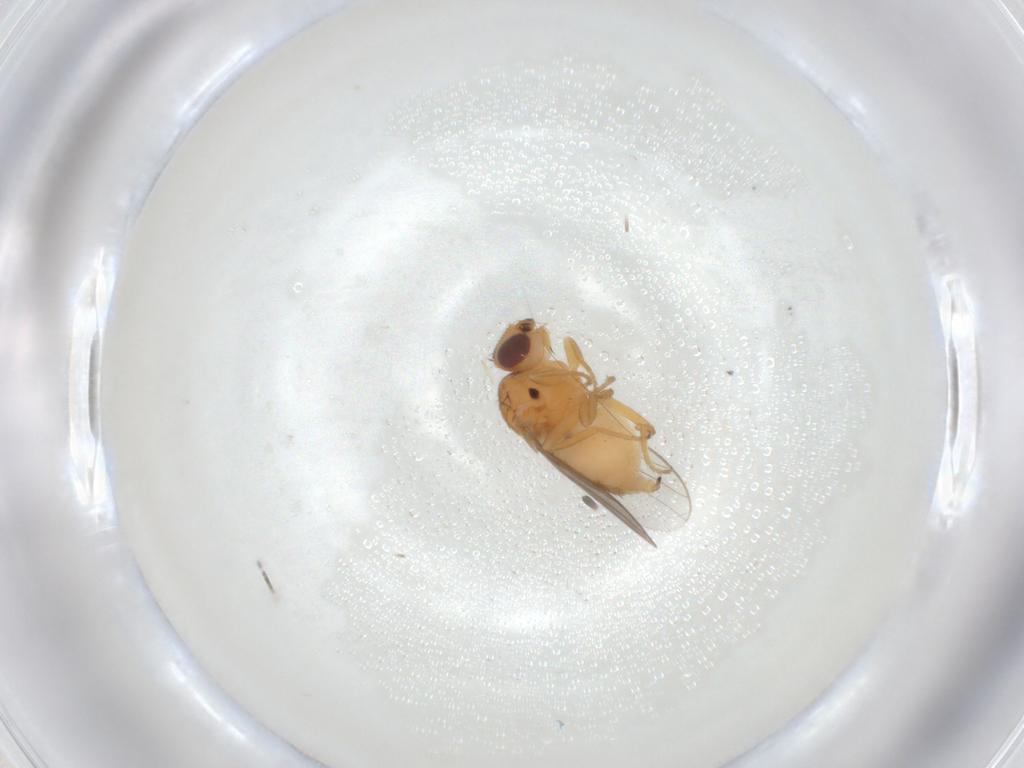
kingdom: Animalia
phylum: Arthropoda
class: Insecta
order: Diptera
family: Chloropidae
